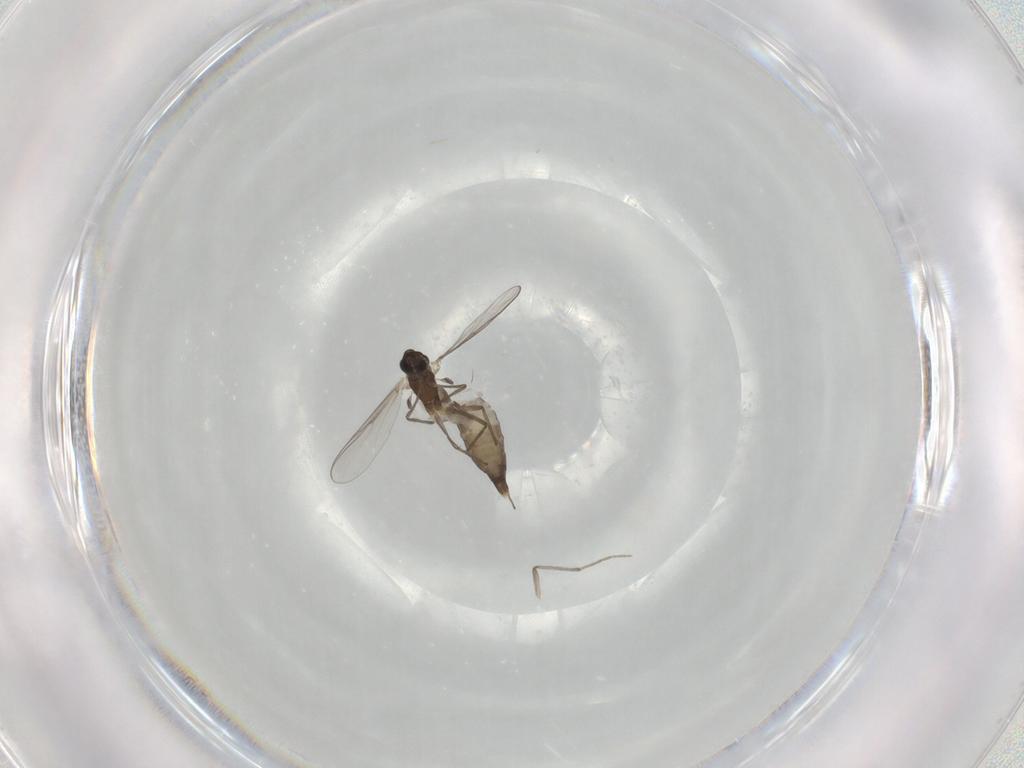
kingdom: Animalia
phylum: Arthropoda
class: Insecta
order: Diptera
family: Chironomidae
